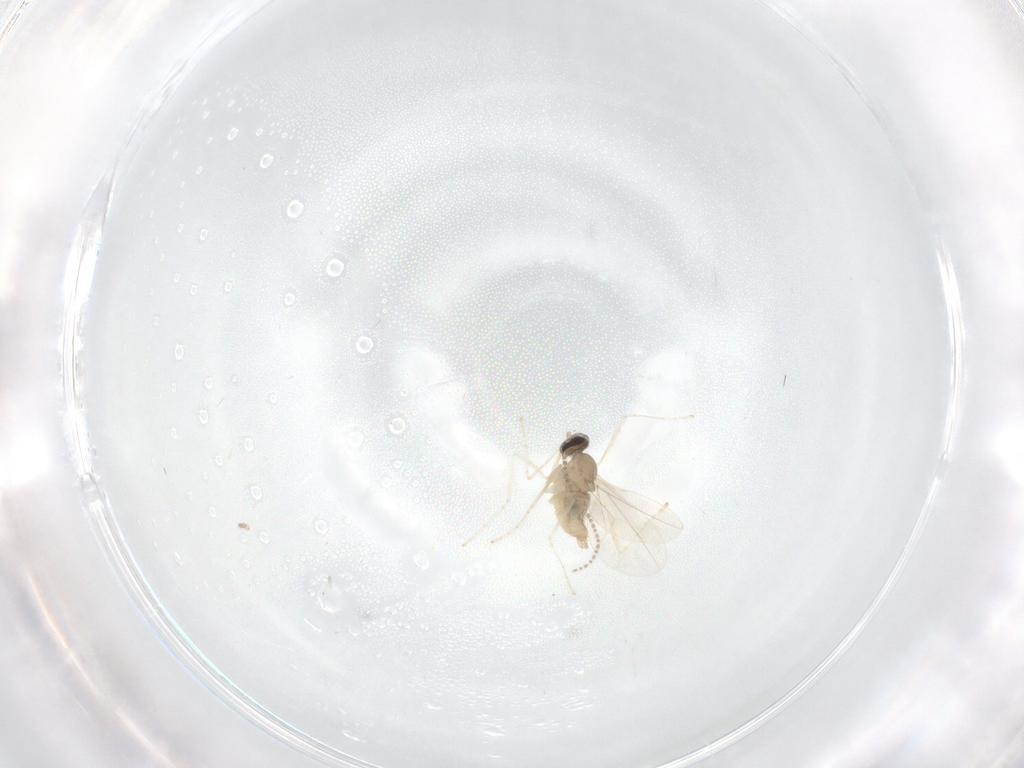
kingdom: Animalia
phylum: Arthropoda
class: Insecta
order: Diptera
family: Cecidomyiidae
